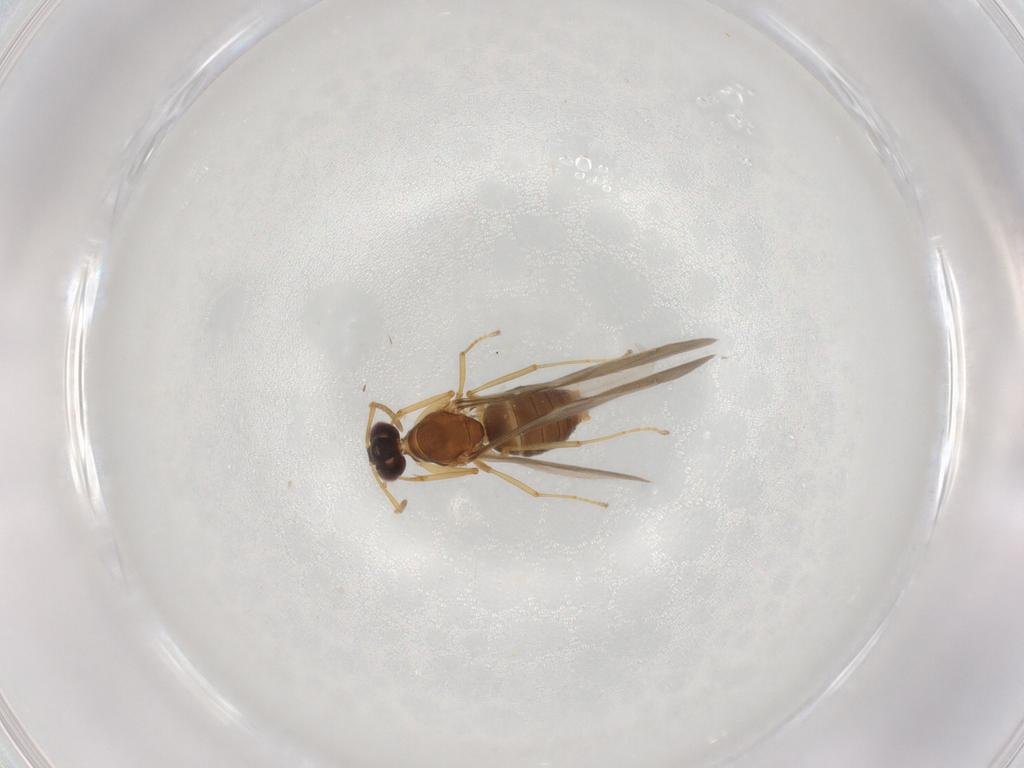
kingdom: Animalia
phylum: Arthropoda
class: Insecta
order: Hymenoptera
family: Formicidae
